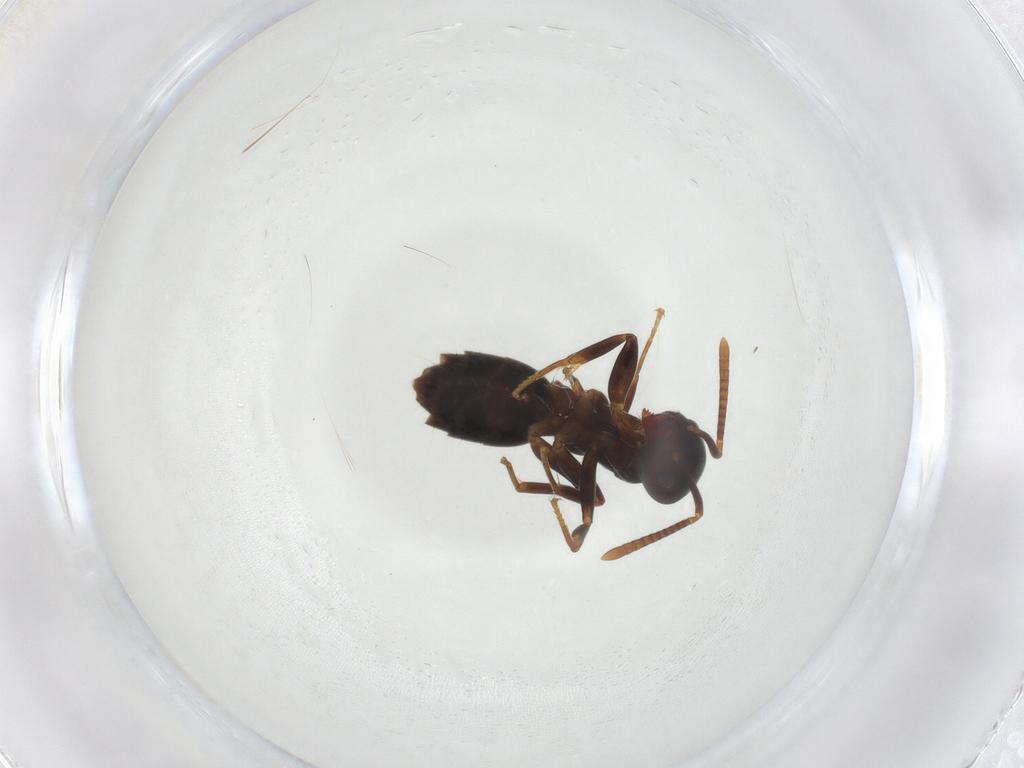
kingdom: Animalia
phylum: Arthropoda
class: Insecta
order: Hymenoptera
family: Formicidae
